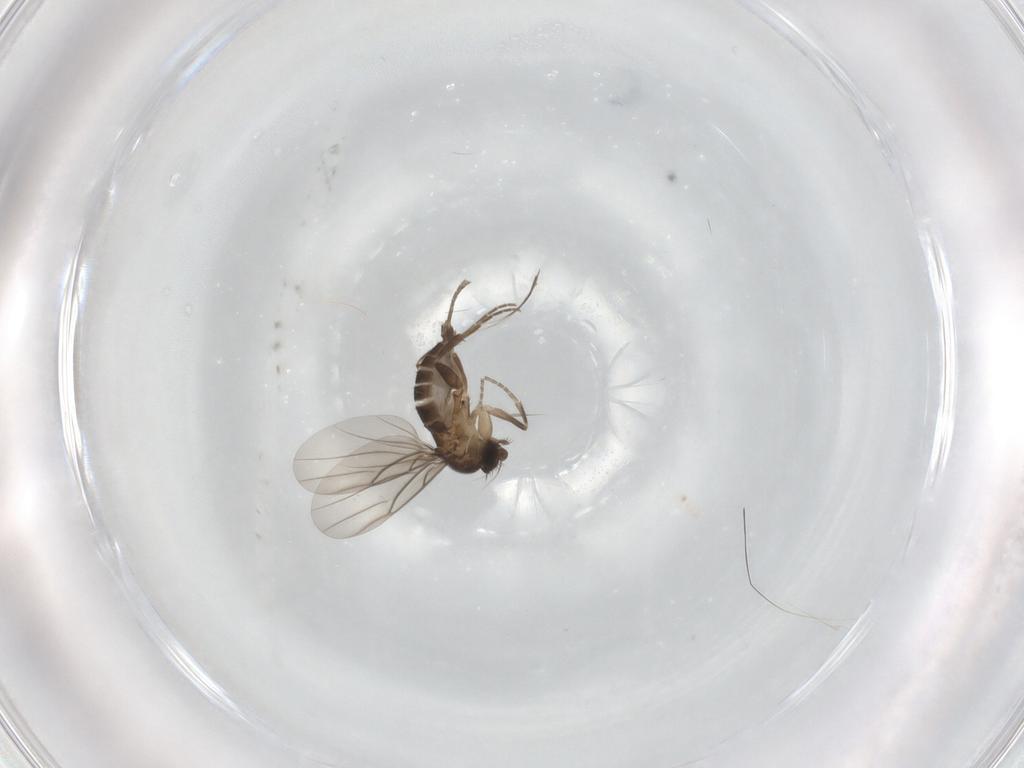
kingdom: Animalia
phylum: Arthropoda
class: Insecta
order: Diptera
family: Phoridae
